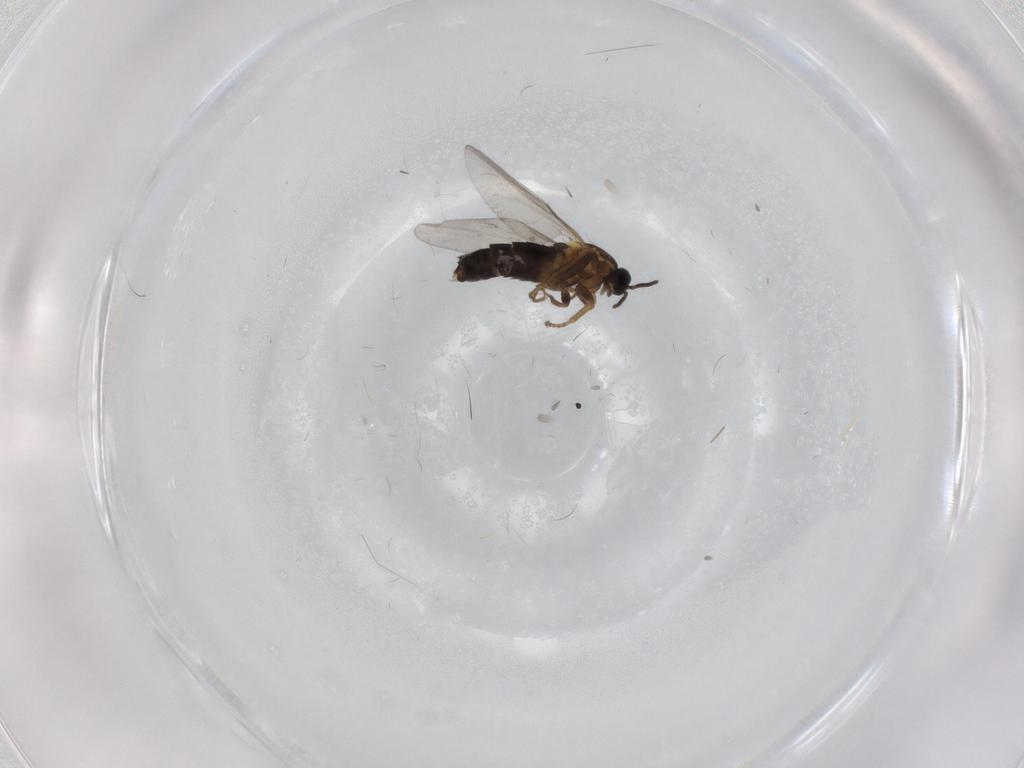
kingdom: Animalia
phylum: Arthropoda
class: Insecta
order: Diptera
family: Scatopsidae
